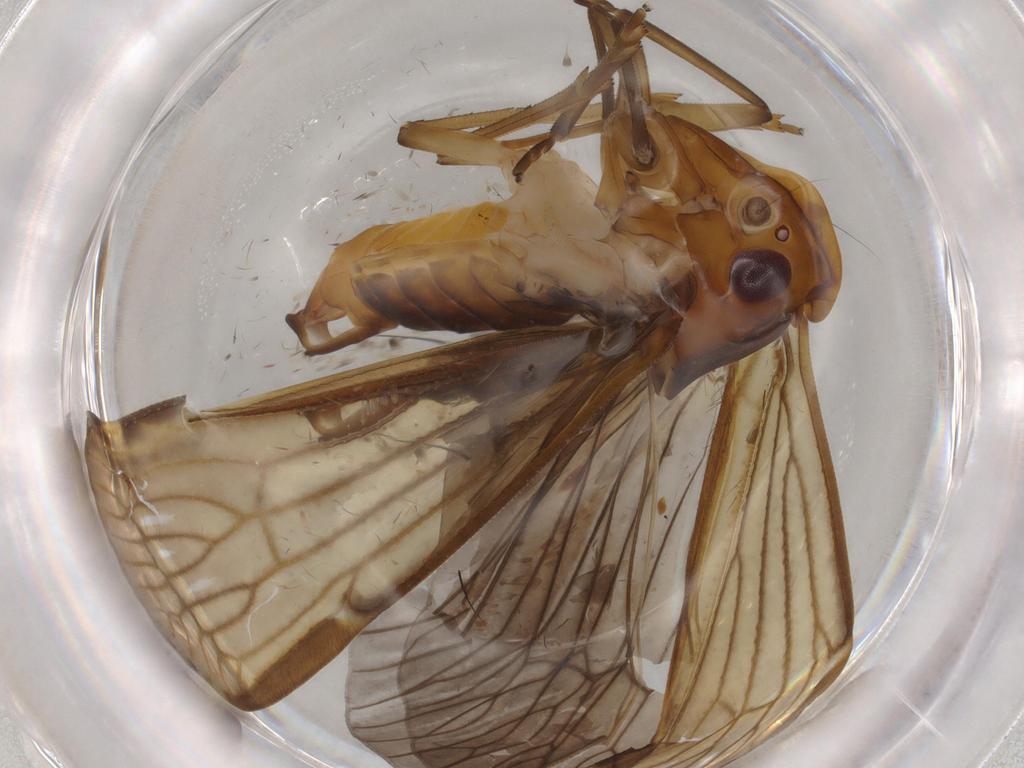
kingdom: Animalia
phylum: Arthropoda
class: Insecta
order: Hemiptera
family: Cixiidae
